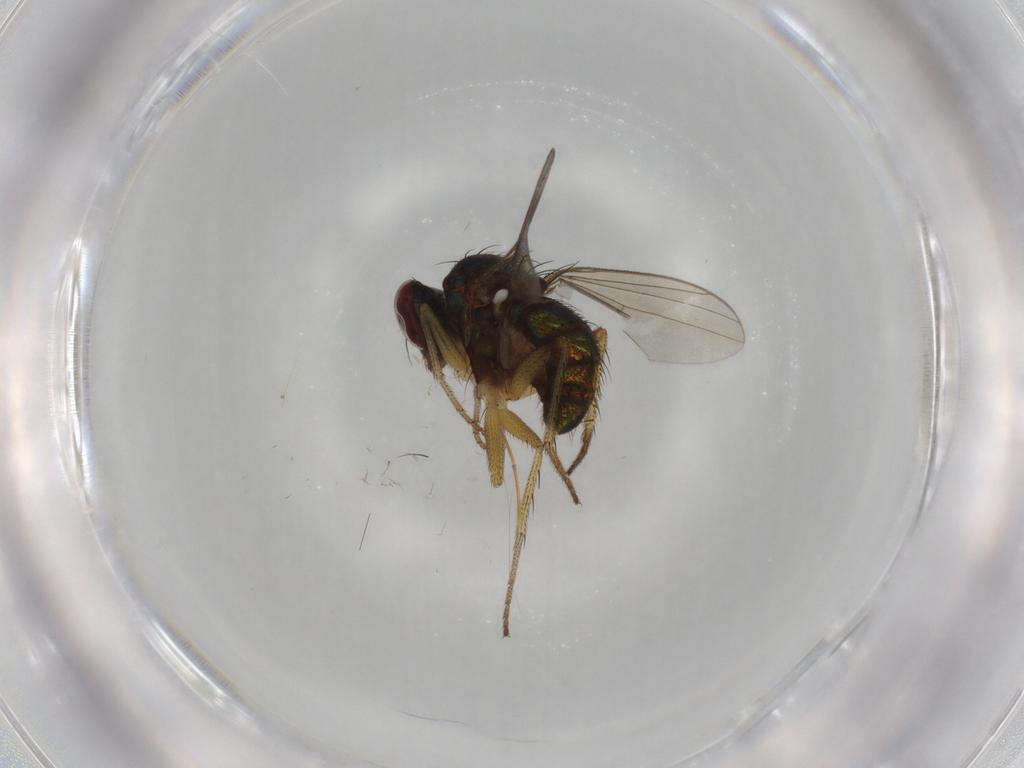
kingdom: Animalia
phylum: Arthropoda
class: Insecta
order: Diptera
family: Dolichopodidae
